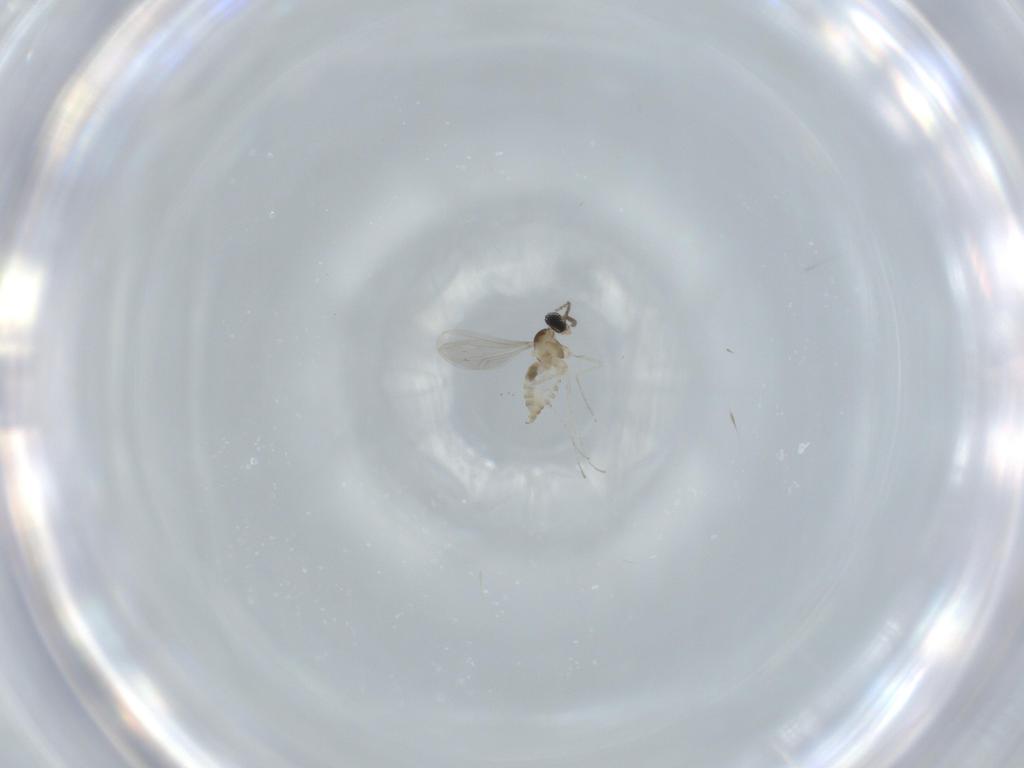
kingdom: Animalia
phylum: Arthropoda
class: Insecta
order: Diptera
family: Cecidomyiidae
